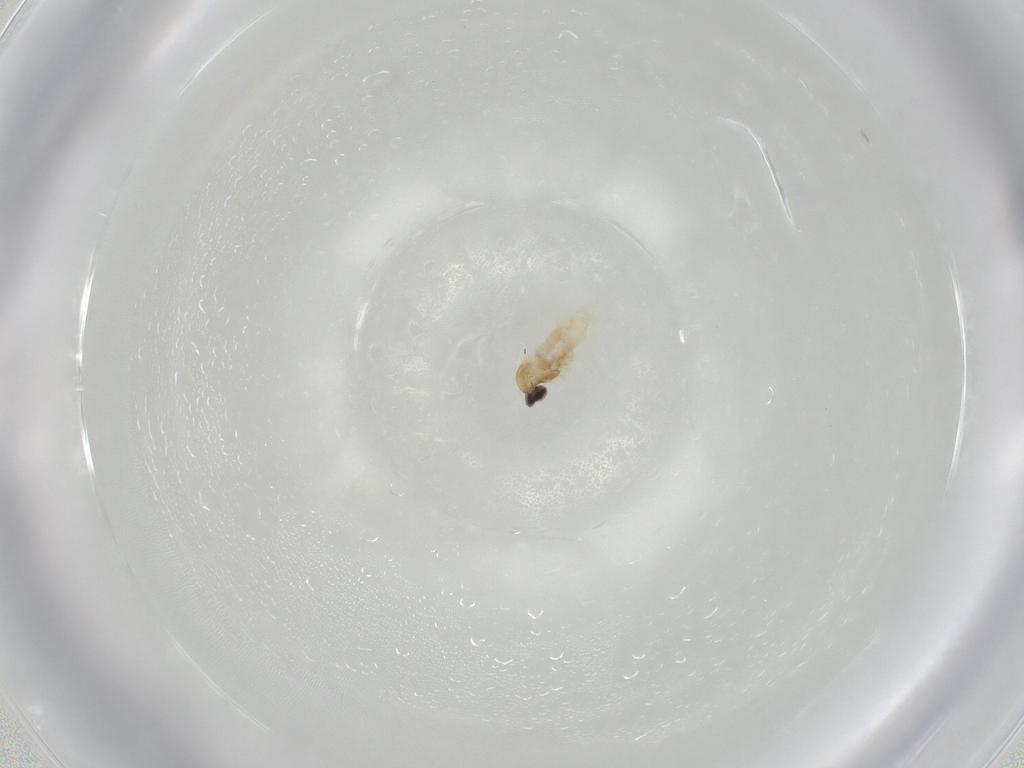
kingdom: Animalia
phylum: Arthropoda
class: Insecta
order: Diptera
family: Cecidomyiidae
